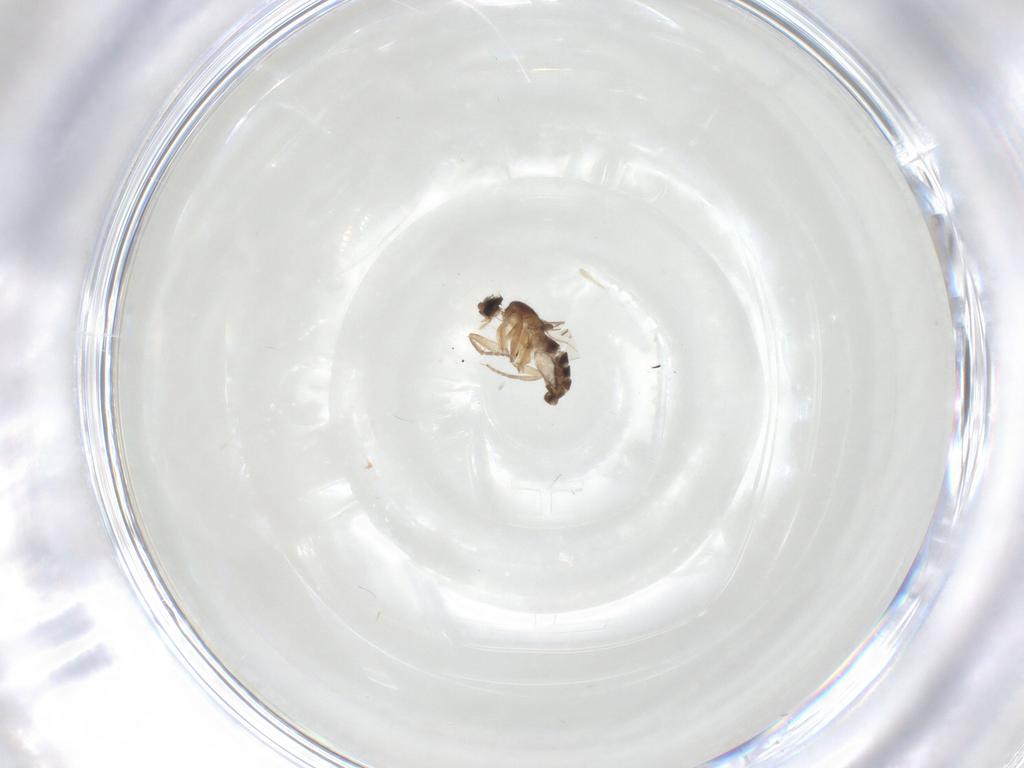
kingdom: Animalia
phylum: Arthropoda
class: Insecta
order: Diptera
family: Phoridae
